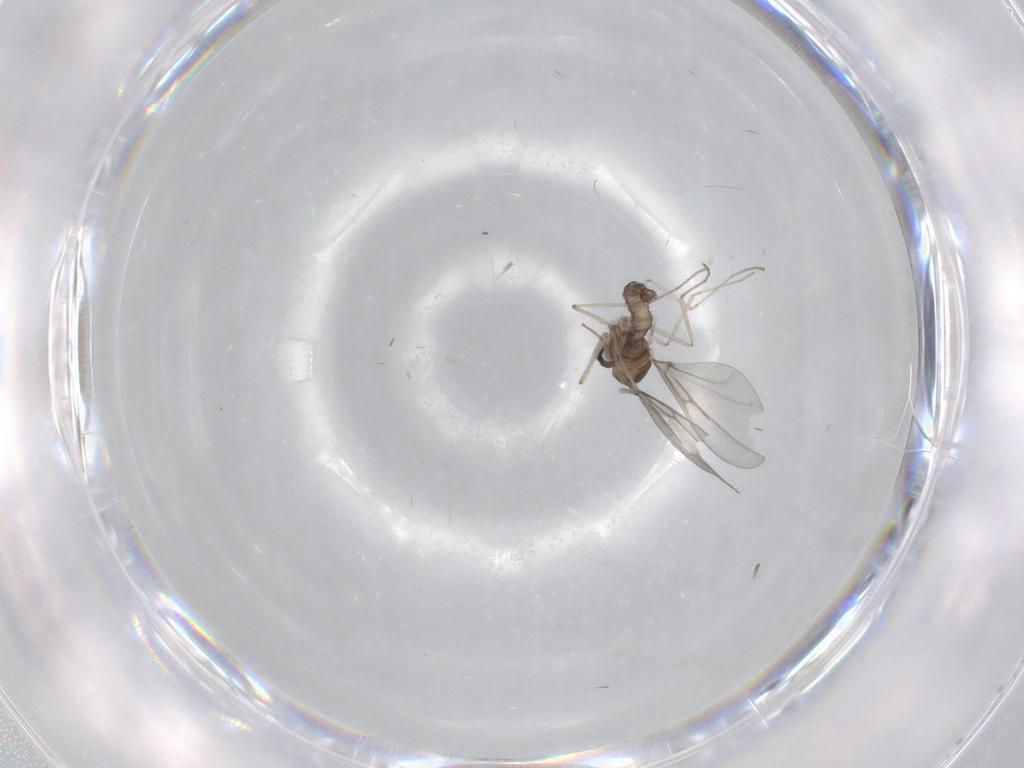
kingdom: Animalia
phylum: Arthropoda
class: Insecta
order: Diptera
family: Cecidomyiidae
